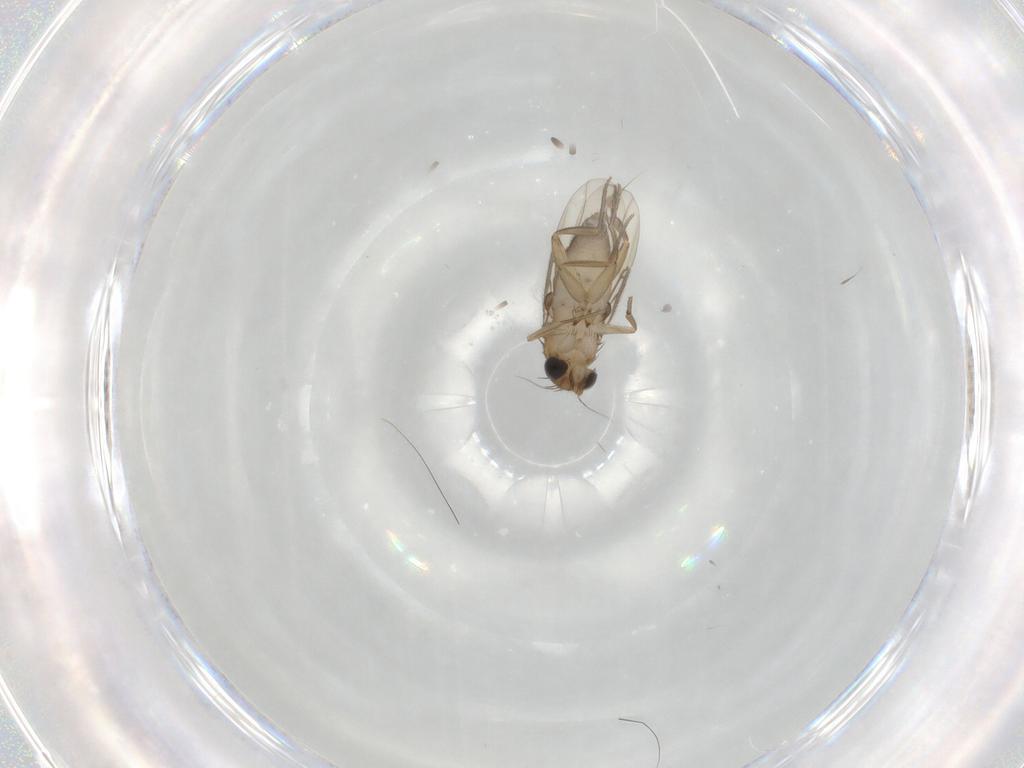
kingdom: Animalia
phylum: Arthropoda
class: Insecta
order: Diptera
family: Phoridae
